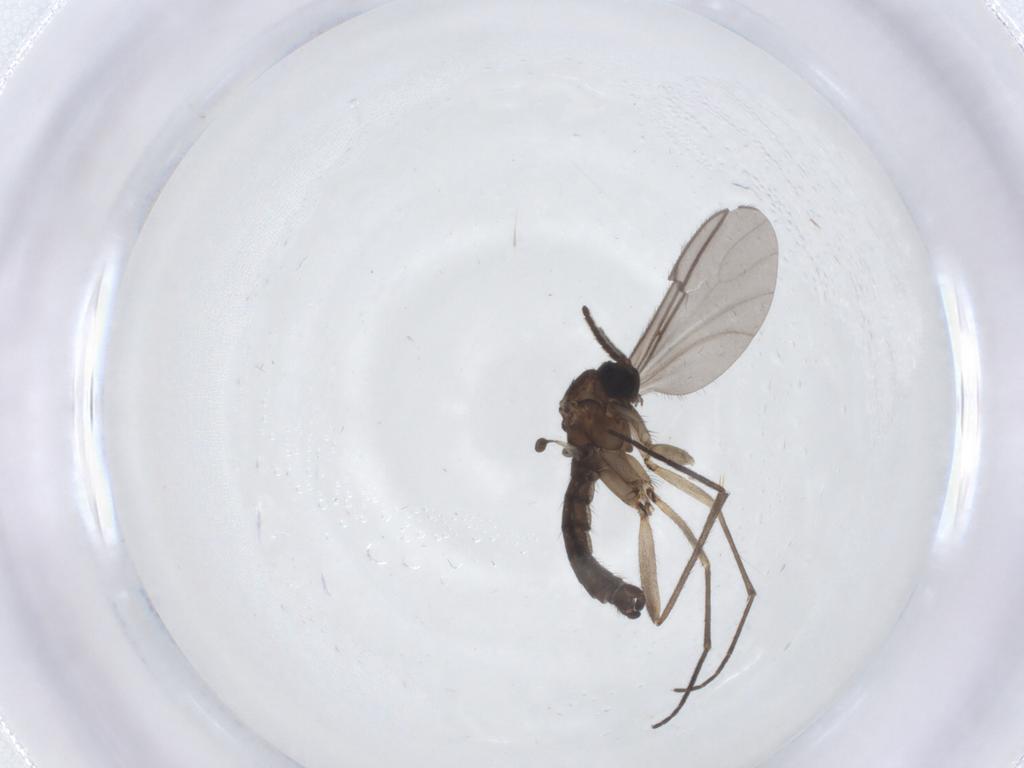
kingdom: Animalia
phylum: Arthropoda
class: Insecta
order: Diptera
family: Sciaridae
